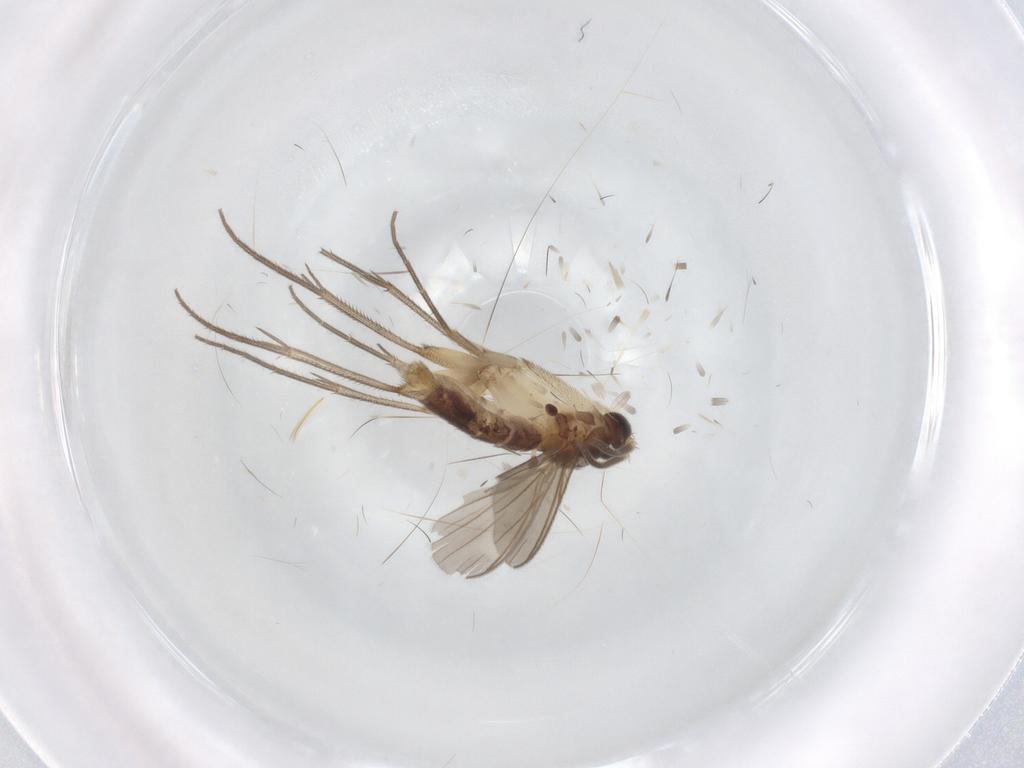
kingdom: Animalia
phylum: Arthropoda
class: Insecta
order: Diptera
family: Mycetophilidae
